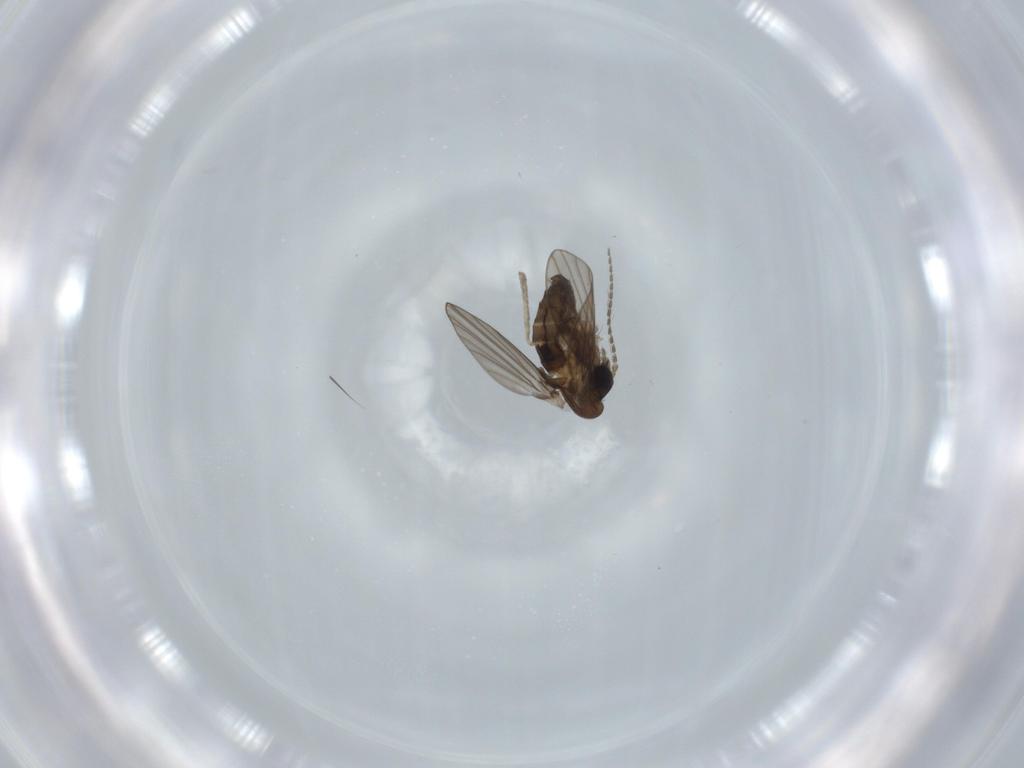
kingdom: Animalia
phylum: Arthropoda
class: Insecta
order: Diptera
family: Psychodidae
